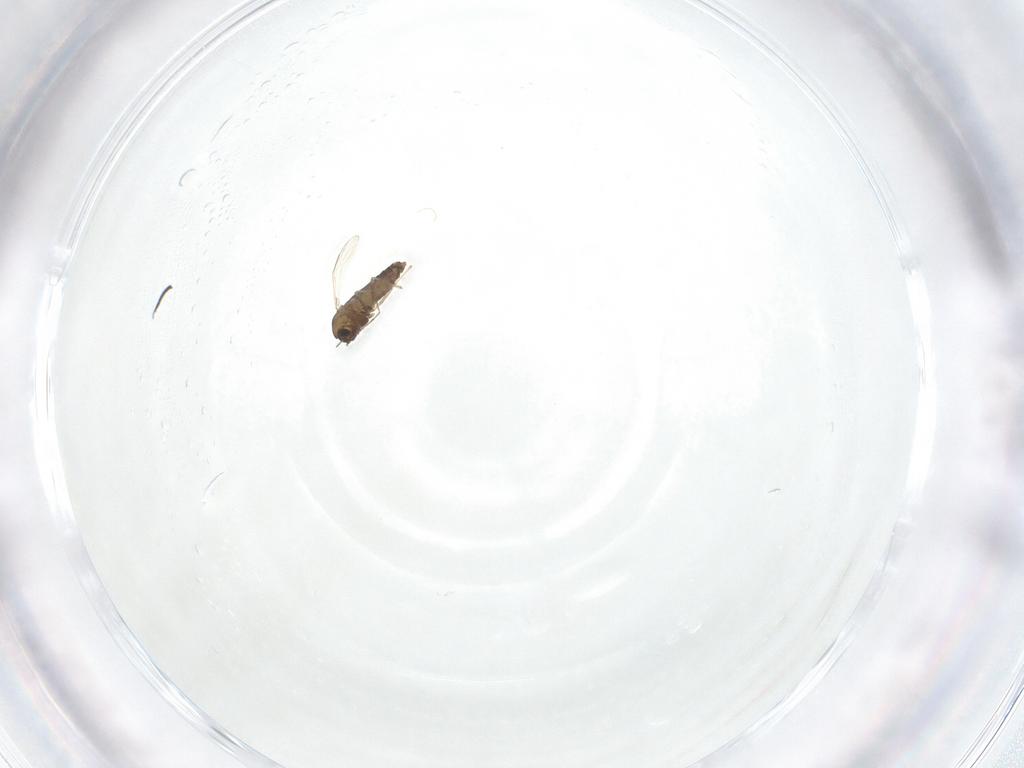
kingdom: Animalia
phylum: Arthropoda
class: Insecta
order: Diptera
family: Chironomidae
